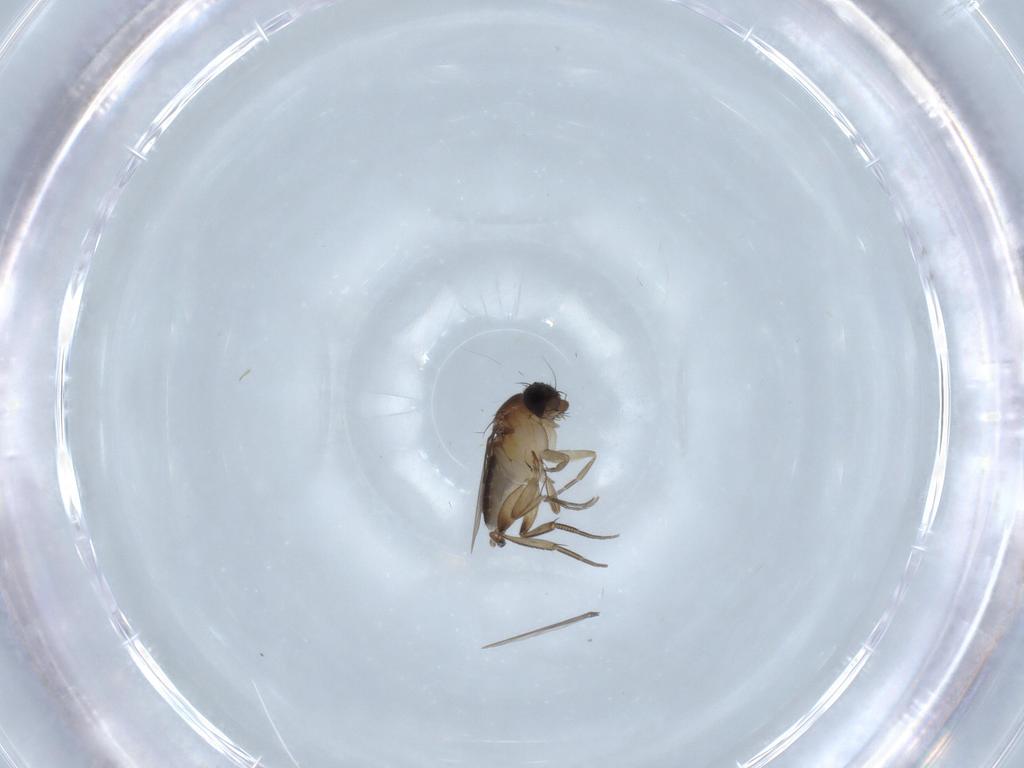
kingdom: Animalia
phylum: Arthropoda
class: Insecta
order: Diptera
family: Phoridae
